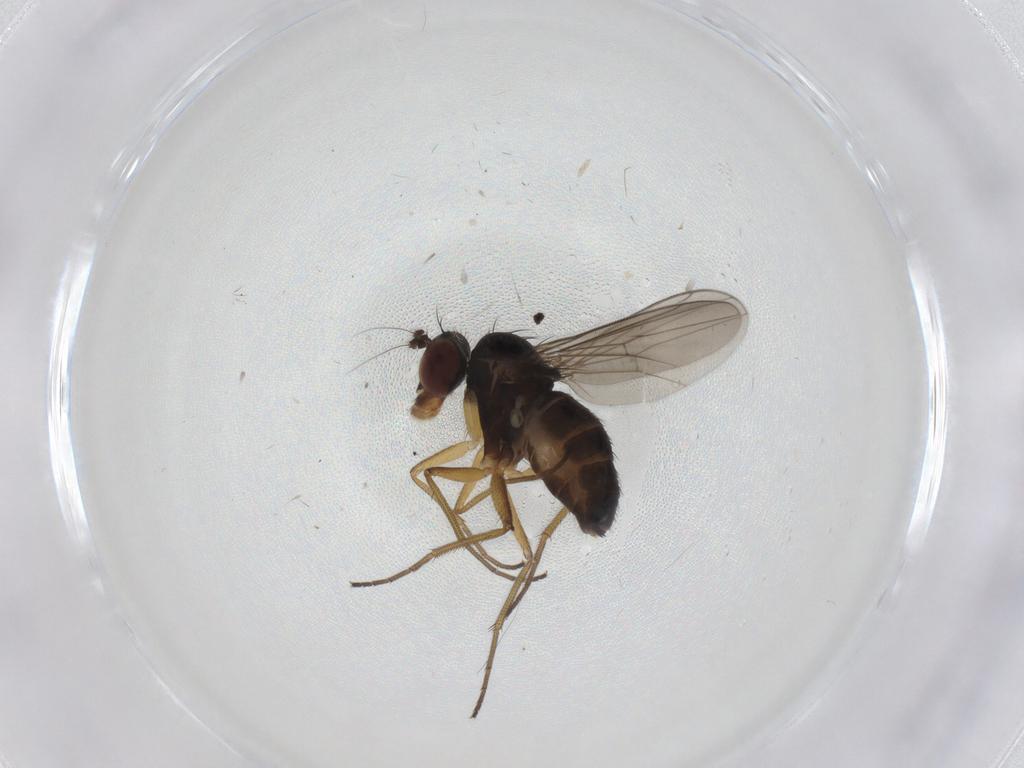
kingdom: Animalia
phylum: Arthropoda
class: Insecta
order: Diptera
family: Dolichopodidae
